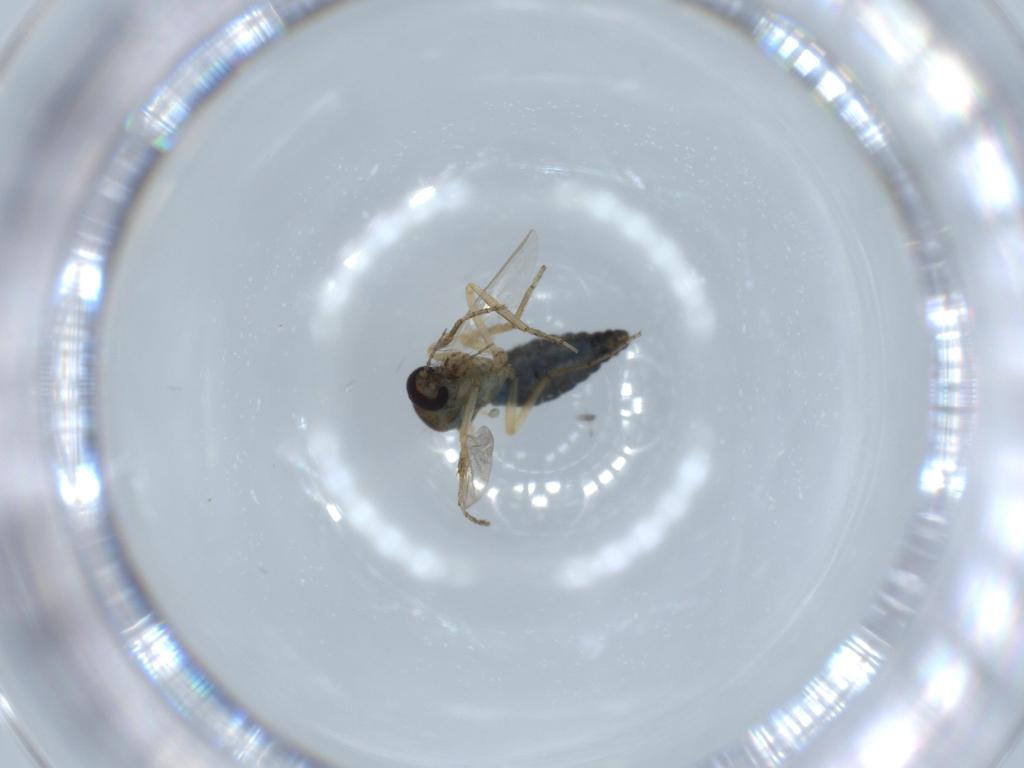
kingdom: Animalia
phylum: Arthropoda
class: Insecta
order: Diptera
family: Ceratopogonidae
